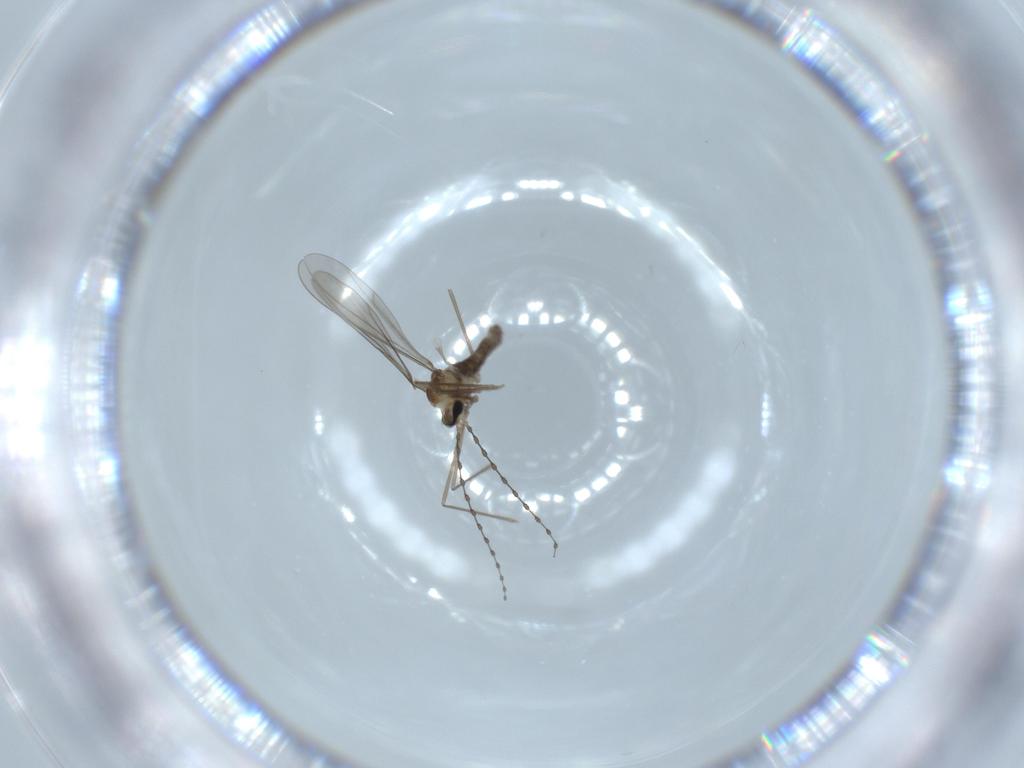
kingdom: Animalia
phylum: Arthropoda
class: Insecta
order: Diptera
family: Cecidomyiidae
